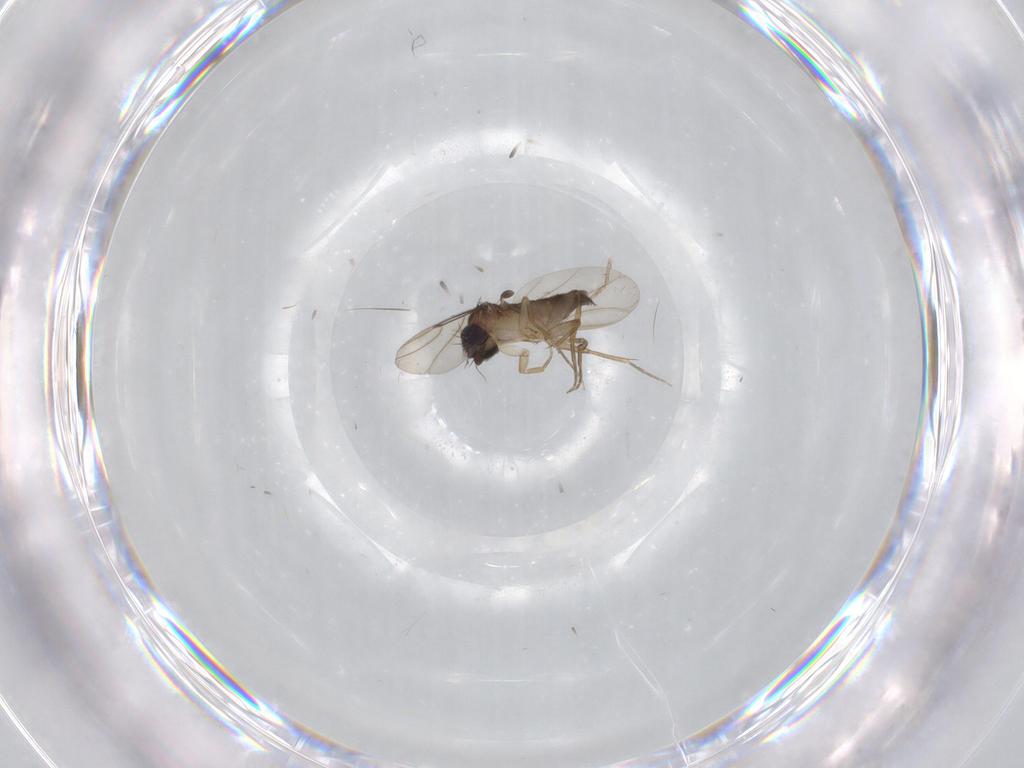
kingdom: Animalia
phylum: Arthropoda
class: Insecta
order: Diptera
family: Phoridae
